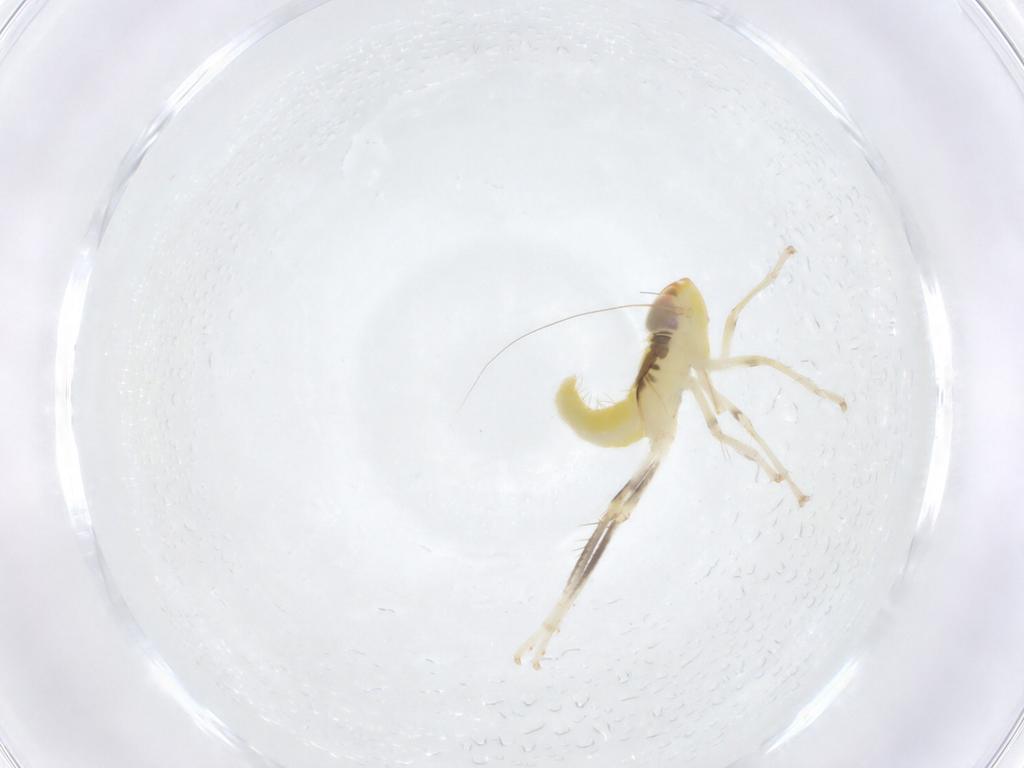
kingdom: Animalia
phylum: Arthropoda
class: Insecta
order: Hemiptera
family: Cicadellidae
